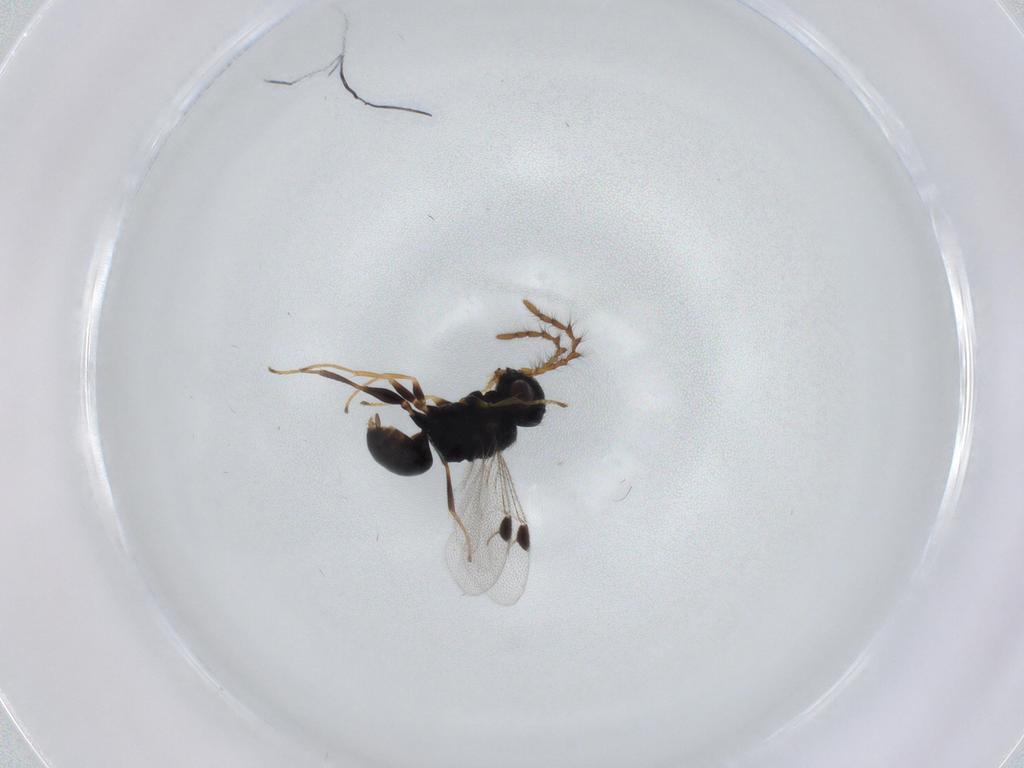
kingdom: Animalia
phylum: Arthropoda
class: Insecta
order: Hymenoptera
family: Dryinidae
